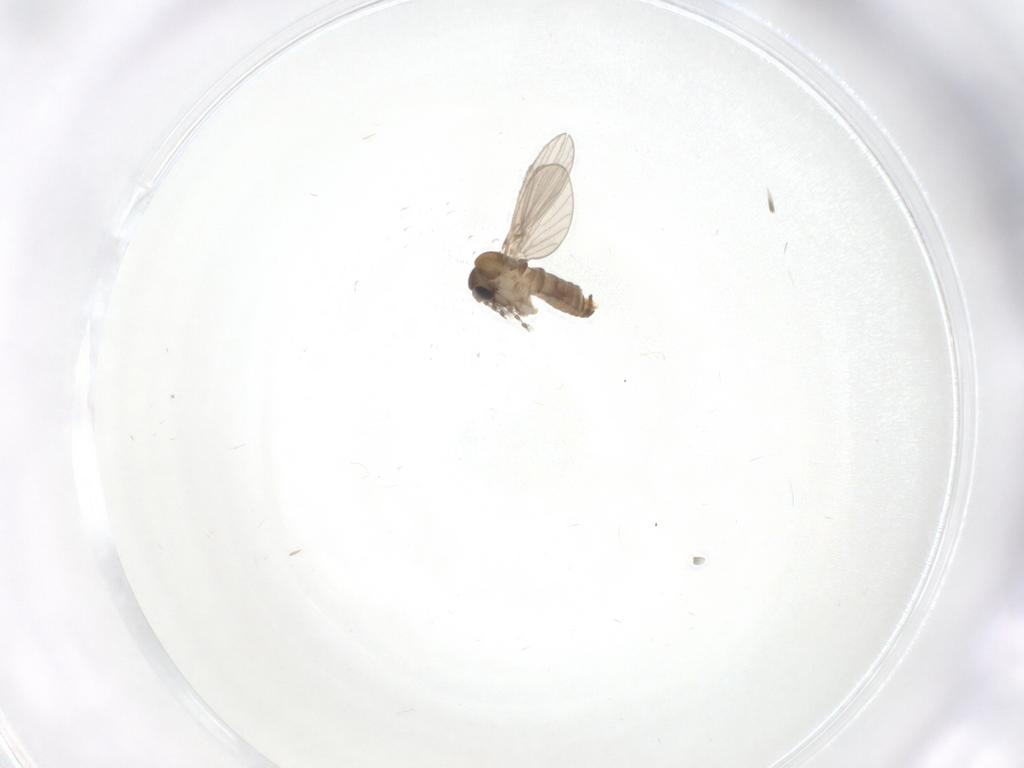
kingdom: Animalia
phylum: Arthropoda
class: Insecta
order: Diptera
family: Psychodidae
